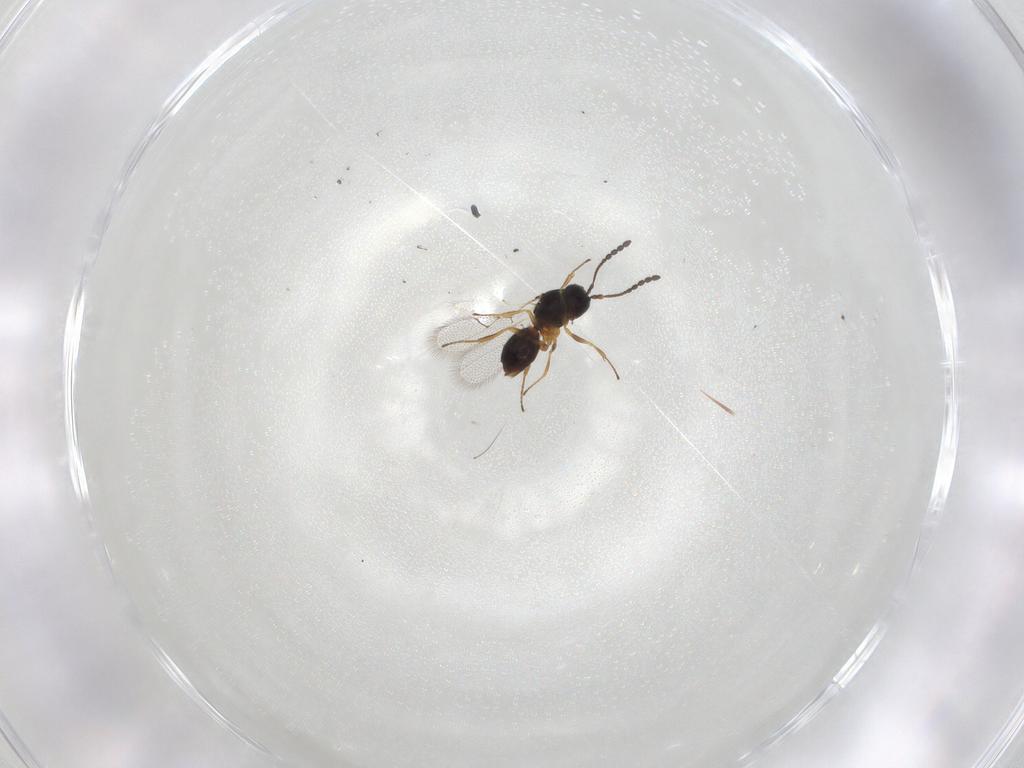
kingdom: Animalia
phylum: Arthropoda
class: Insecta
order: Hymenoptera
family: Figitidae
